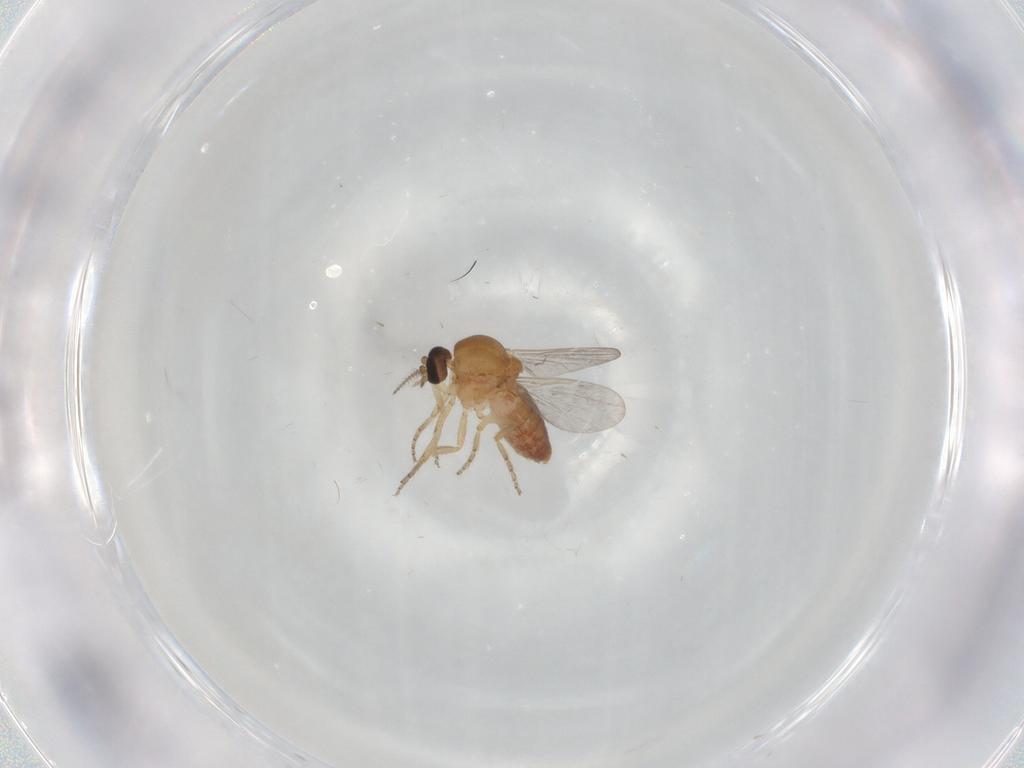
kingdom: Animalia
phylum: Arthropoda
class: Insecta
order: Diptera
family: Ceratopogonidae
